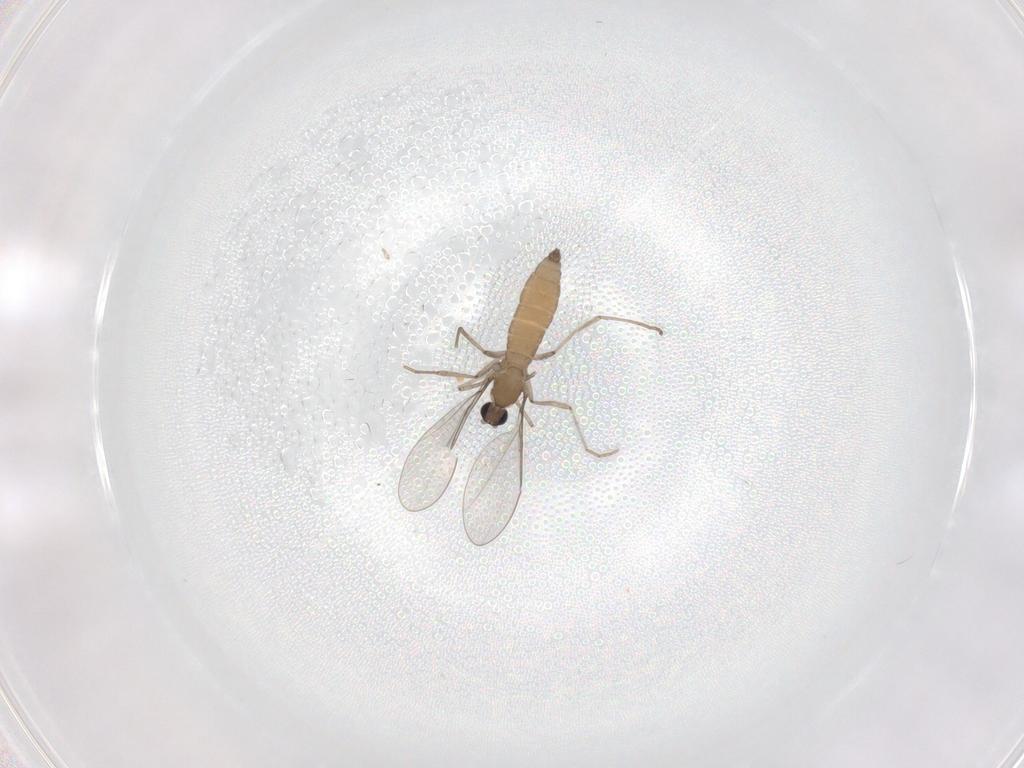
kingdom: Animalia
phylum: Arthropoda
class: Insecta
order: Diptera
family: Cecidomyiidae
